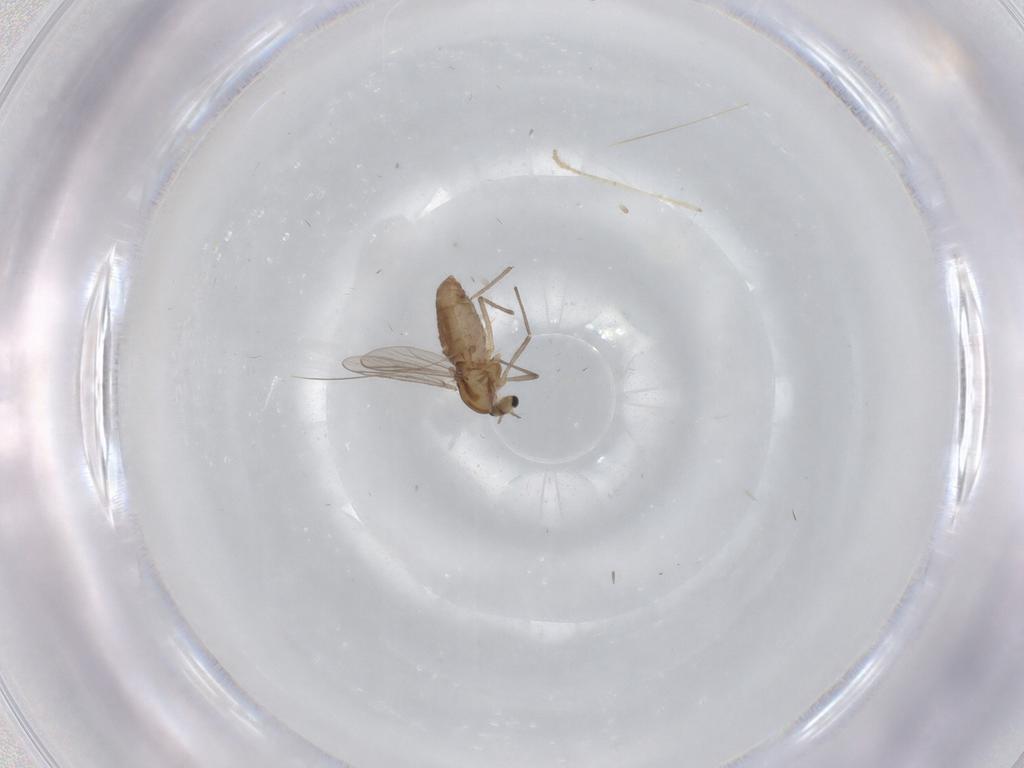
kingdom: Animalia
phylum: Arthropoda
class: Insecta
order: Diptera
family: Chironomidae
